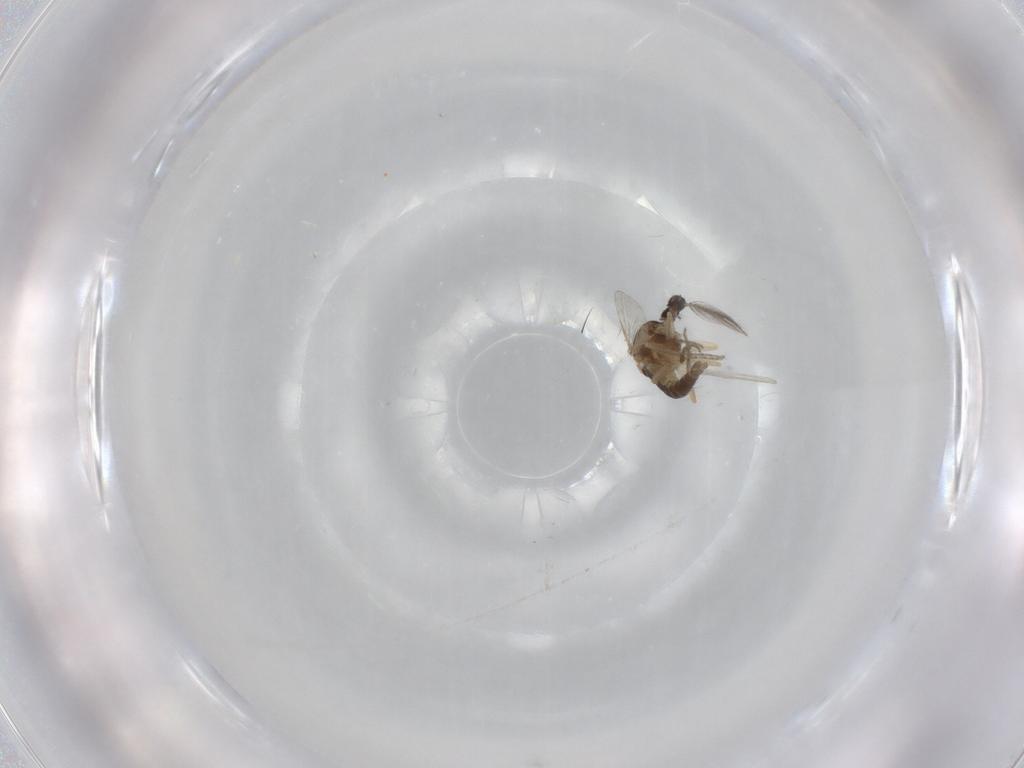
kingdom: Animalia
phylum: Arthropoda
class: Insecta
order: Diptera
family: Ceratopogonidae
